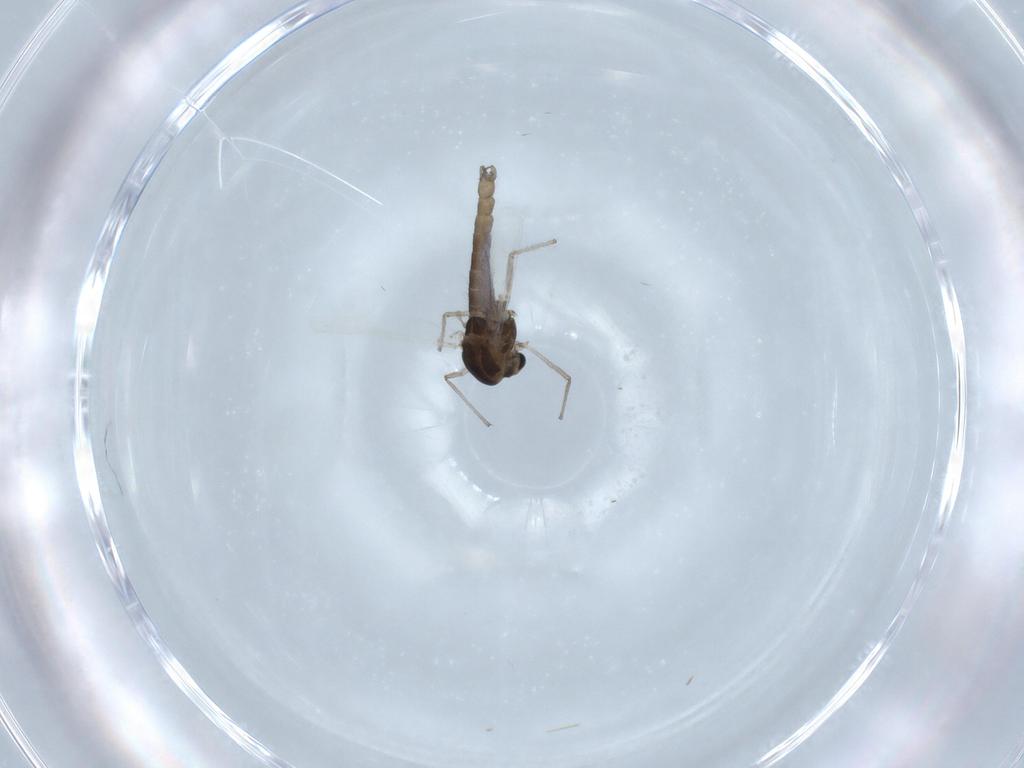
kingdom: Animalia
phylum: Arthropoda
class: Insecta
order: Diptera
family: Chironomidae
